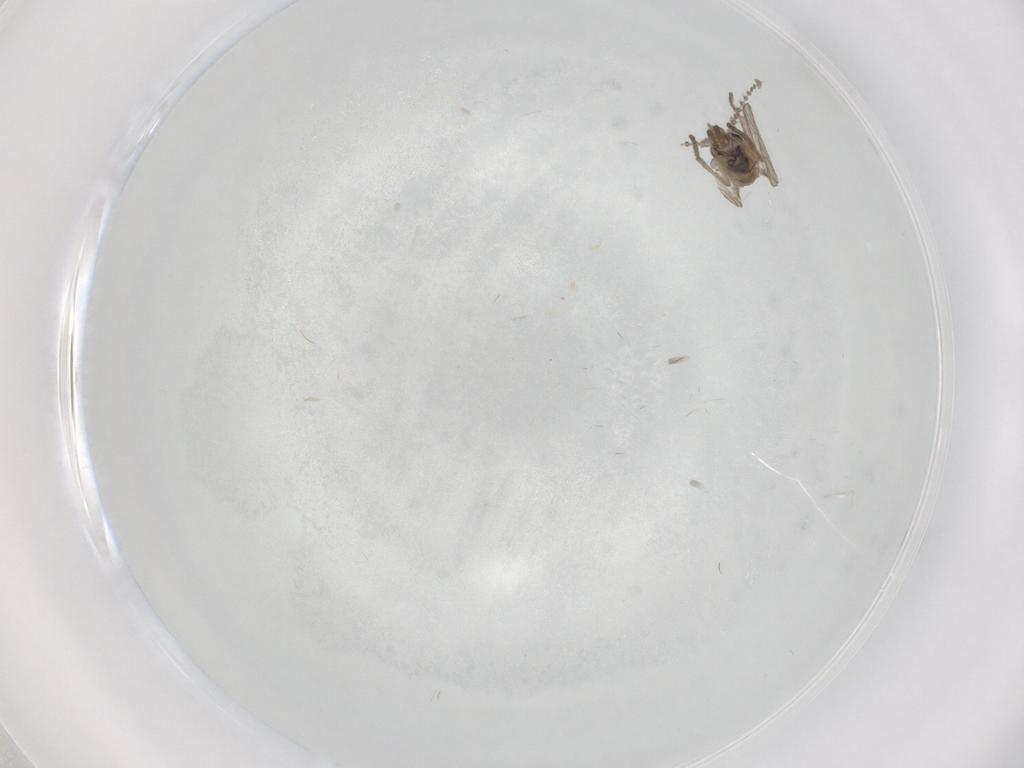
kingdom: Animalia
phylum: Arthropoda
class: Insecta
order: Diptera
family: Psychodidae
